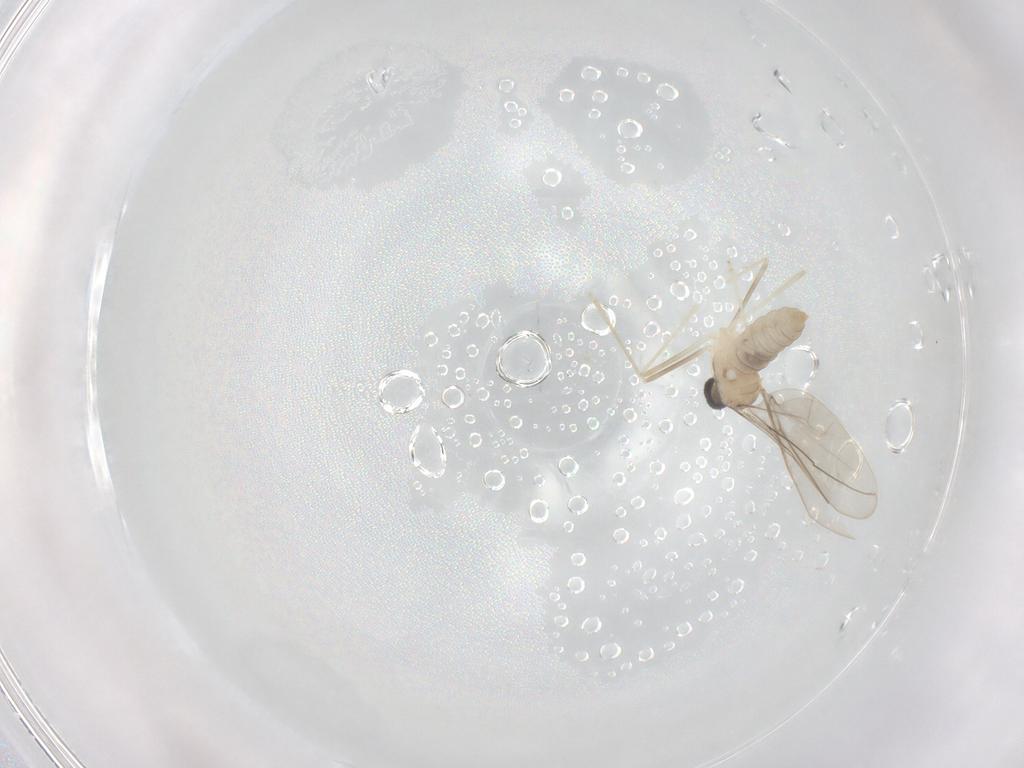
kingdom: Animalia
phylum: Arthropoda
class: Insecta
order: Diptera
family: Cecidomyiidae
